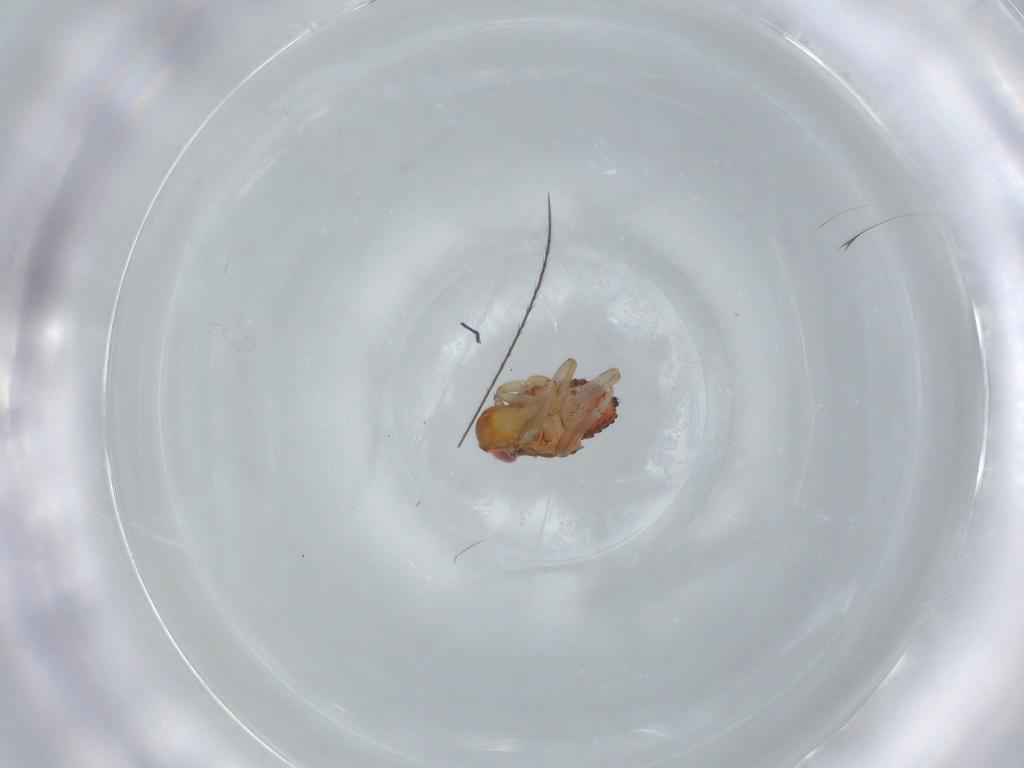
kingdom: Animalia
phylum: Arthropoda
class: Insecta
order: Hemiptera
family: Issidae
